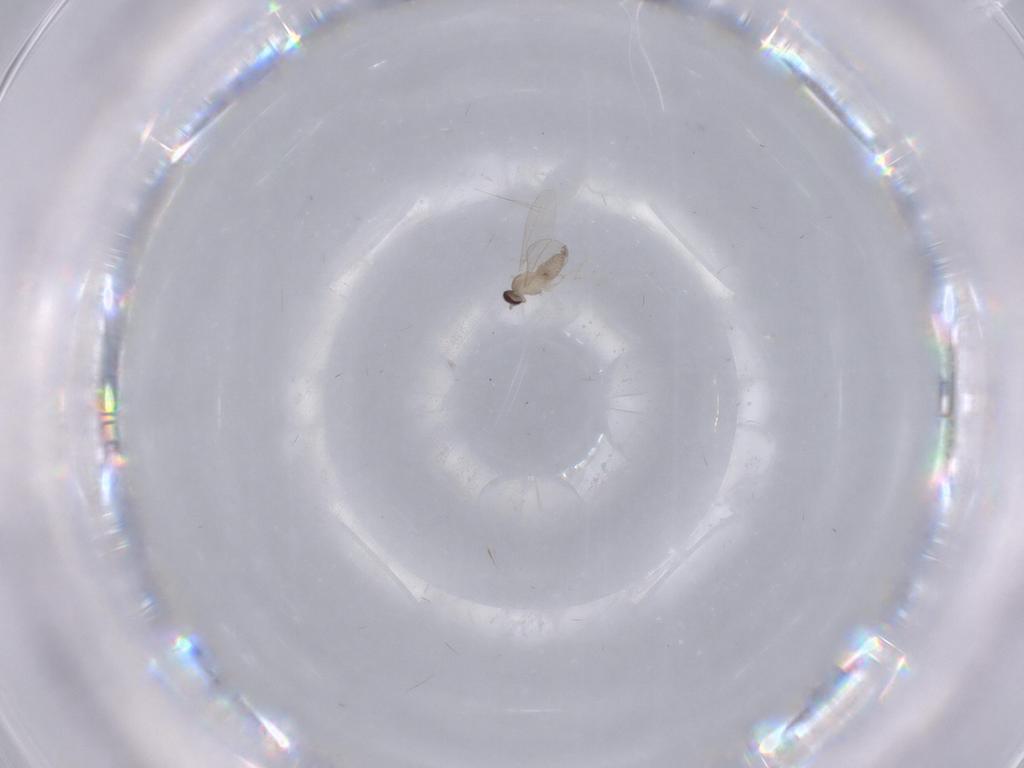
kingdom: Animalia
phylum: Arthropoda
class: Insecta
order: Diptera
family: Cecidomyiidae
